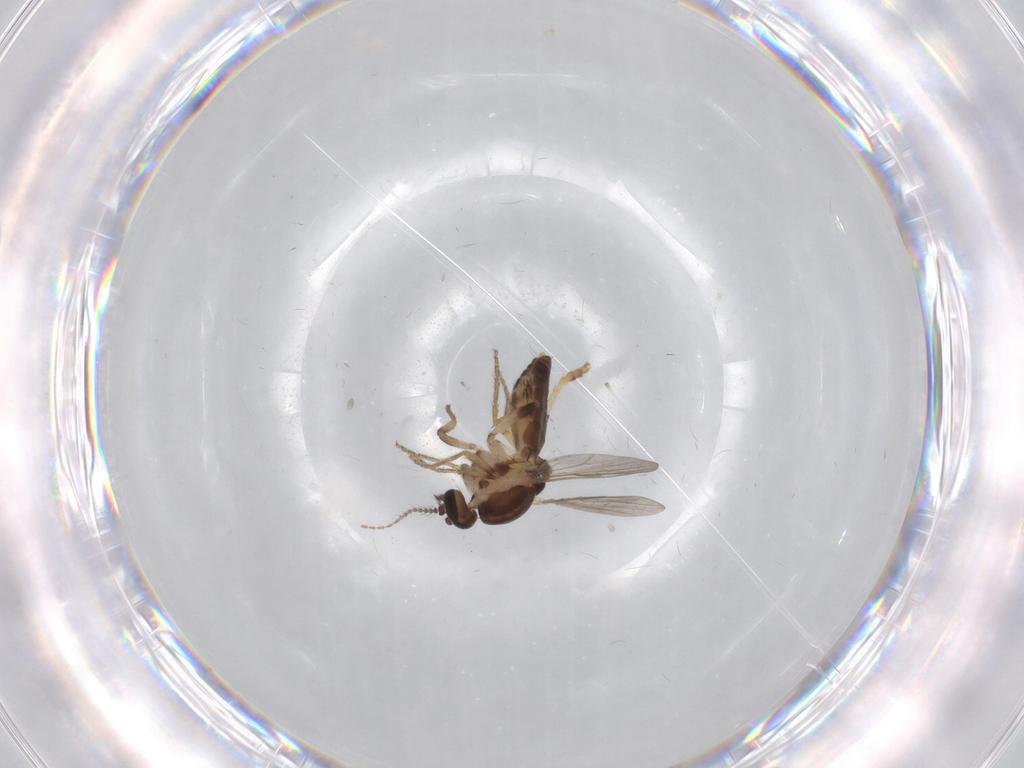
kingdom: Animalia
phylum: Arthropoda
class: Insecta
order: Diptera
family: Ceratopogonidae
